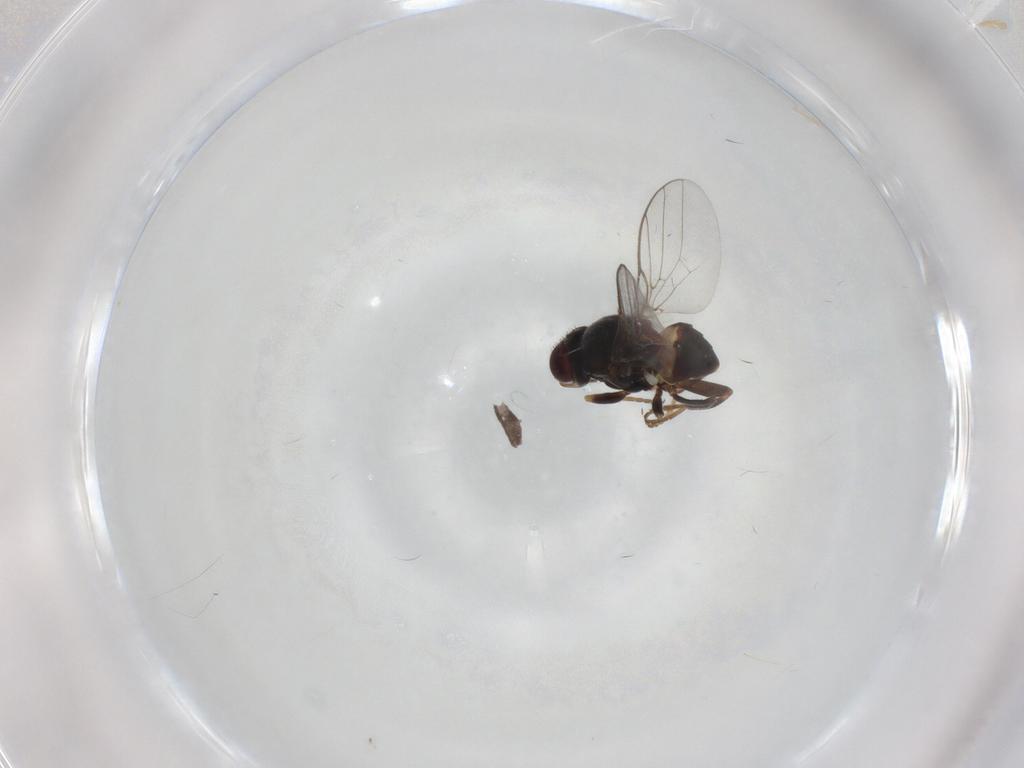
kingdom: Animalia
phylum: Arthropoda
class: Insecta
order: Diptera
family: Chloropidae
